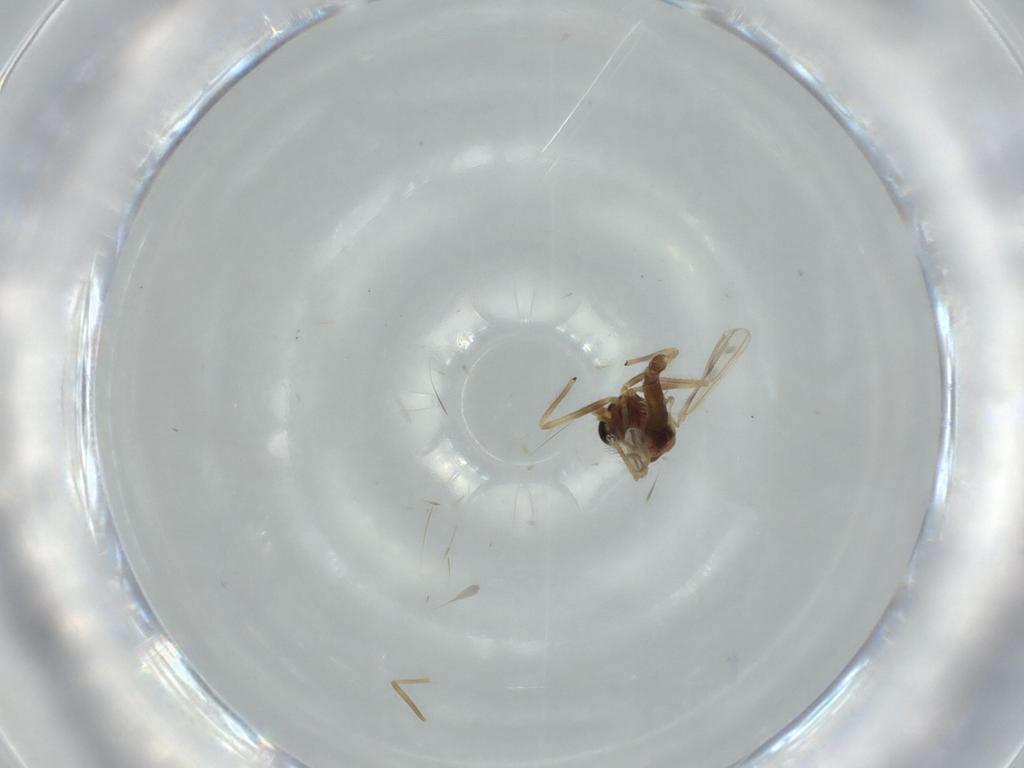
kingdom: Animalia
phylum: Arthropoda
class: Insecta
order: Diptera
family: Chironomidae
